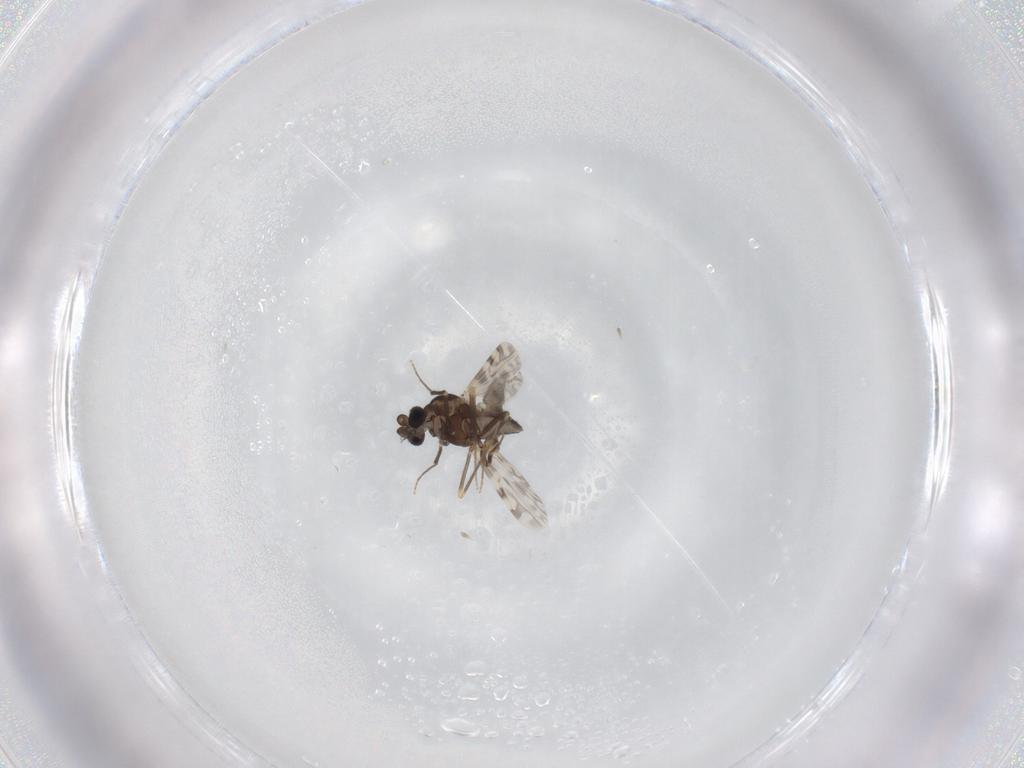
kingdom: Animalia
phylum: Arthropoda
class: Insecta
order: Diptera
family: Ceratopogonidae
